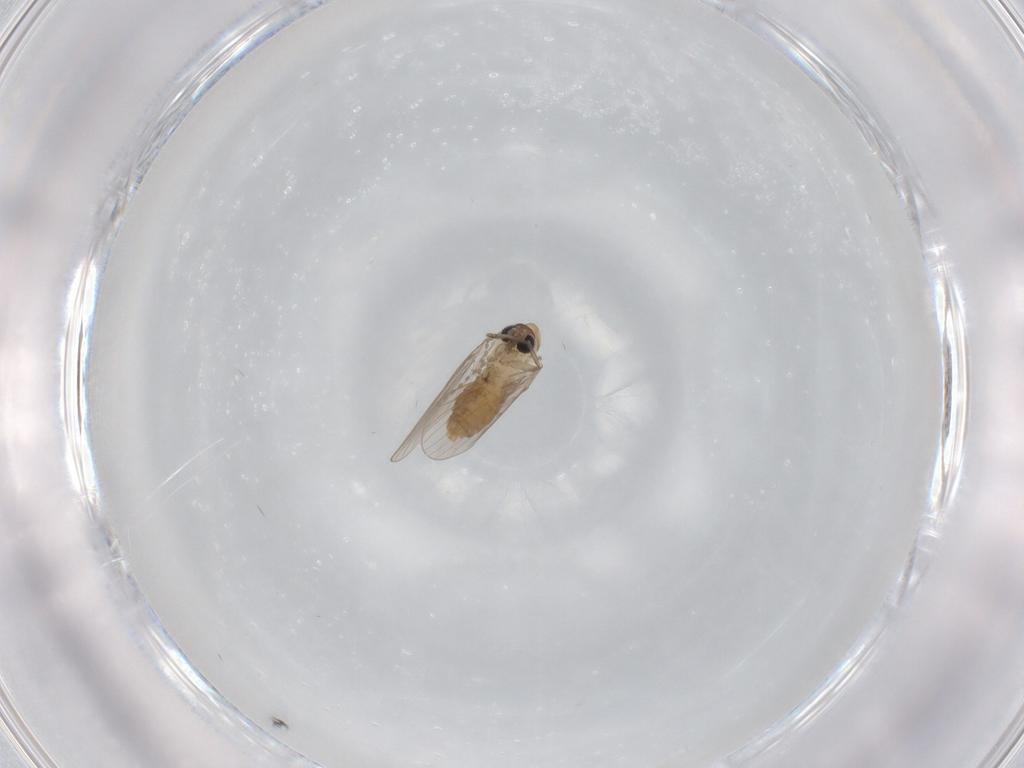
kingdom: Animalia
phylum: Arthropoda
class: Insecta
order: Diptera
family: Psychodidae
